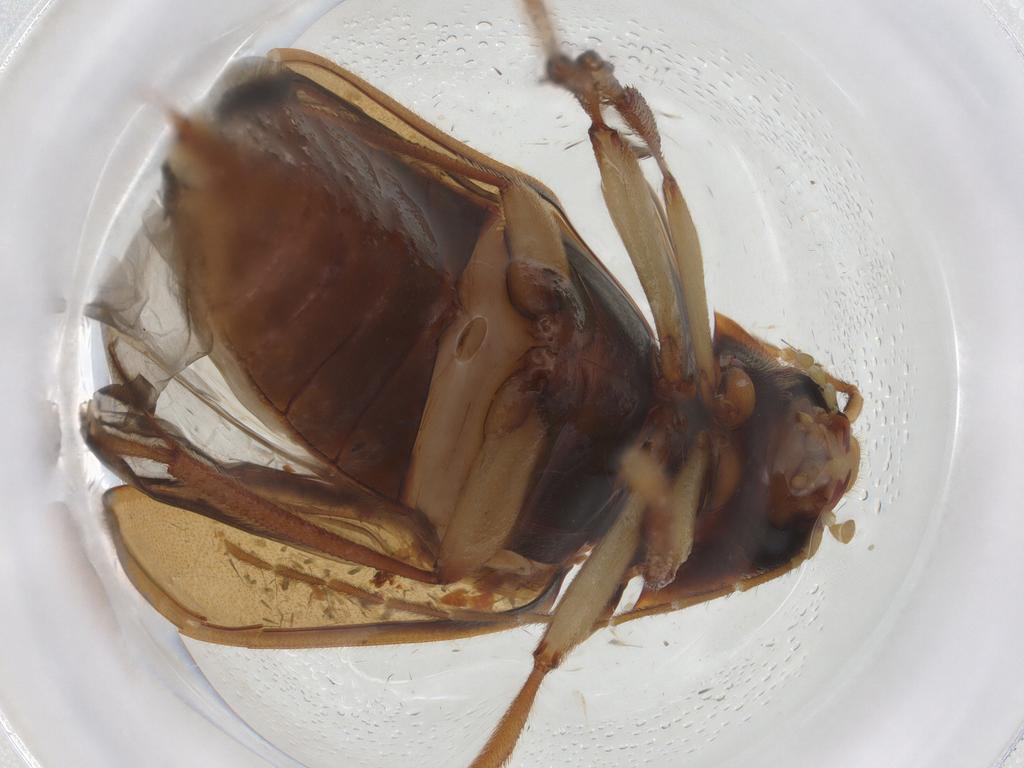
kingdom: Animalia
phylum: Arthropoda
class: Insecta
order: Coleoptera
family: Ptilodactylidae
